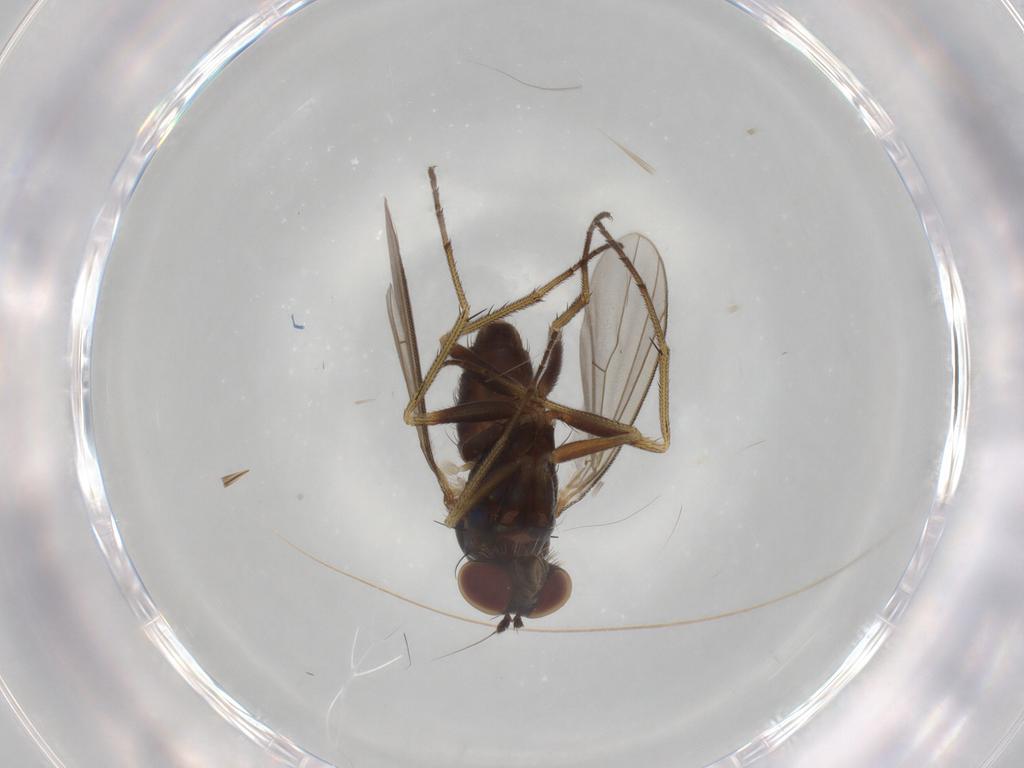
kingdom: Animalia
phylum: Arthropoda
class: Insecta
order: Diptera
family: Dolichopodidae
